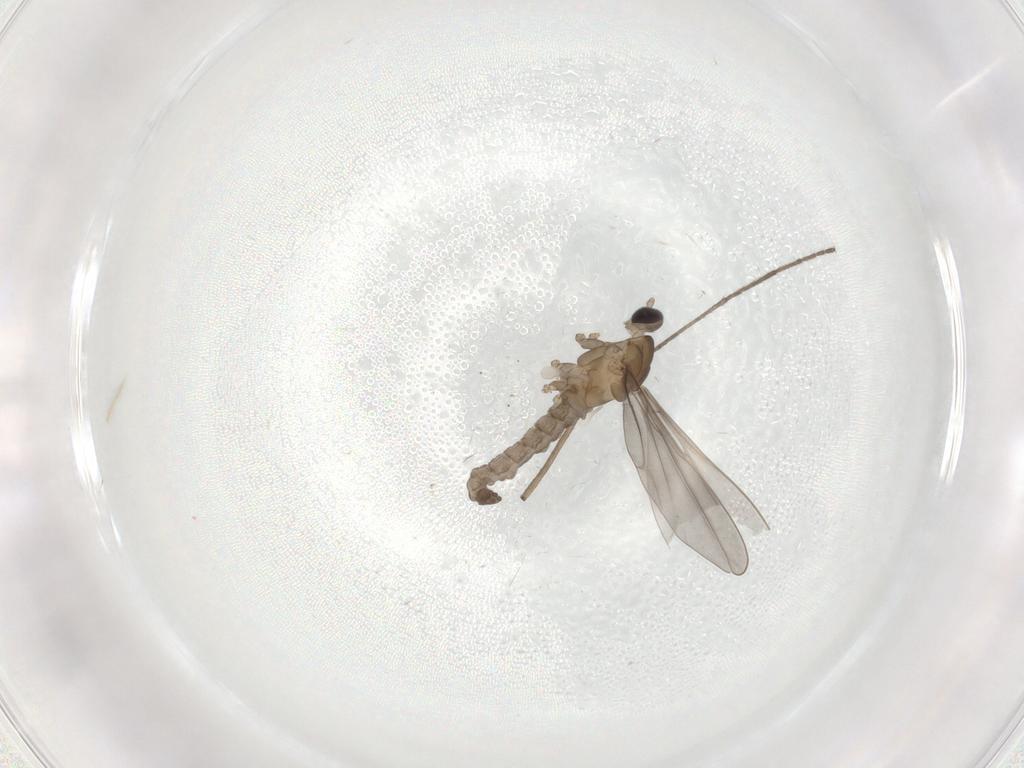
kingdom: Animalia
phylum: Arthropoda
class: Insecta
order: Diptera
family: Cecidomyiidae
